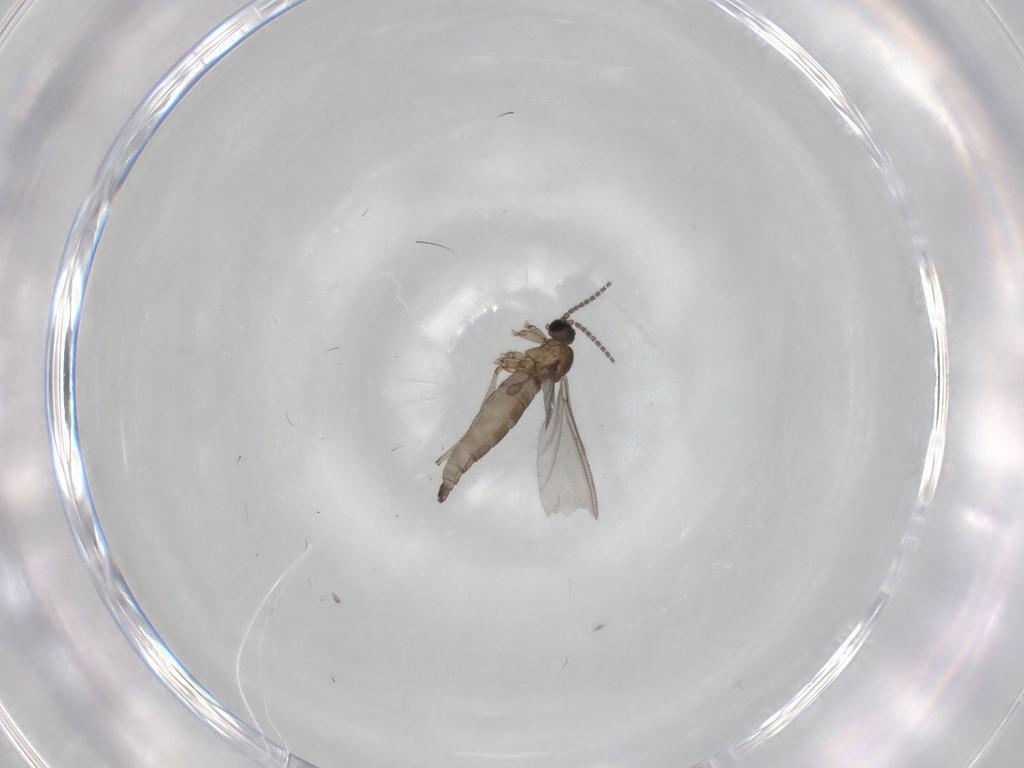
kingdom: Animalia
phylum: Arthropoda
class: Insecta
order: Diptera
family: Sciaridae
